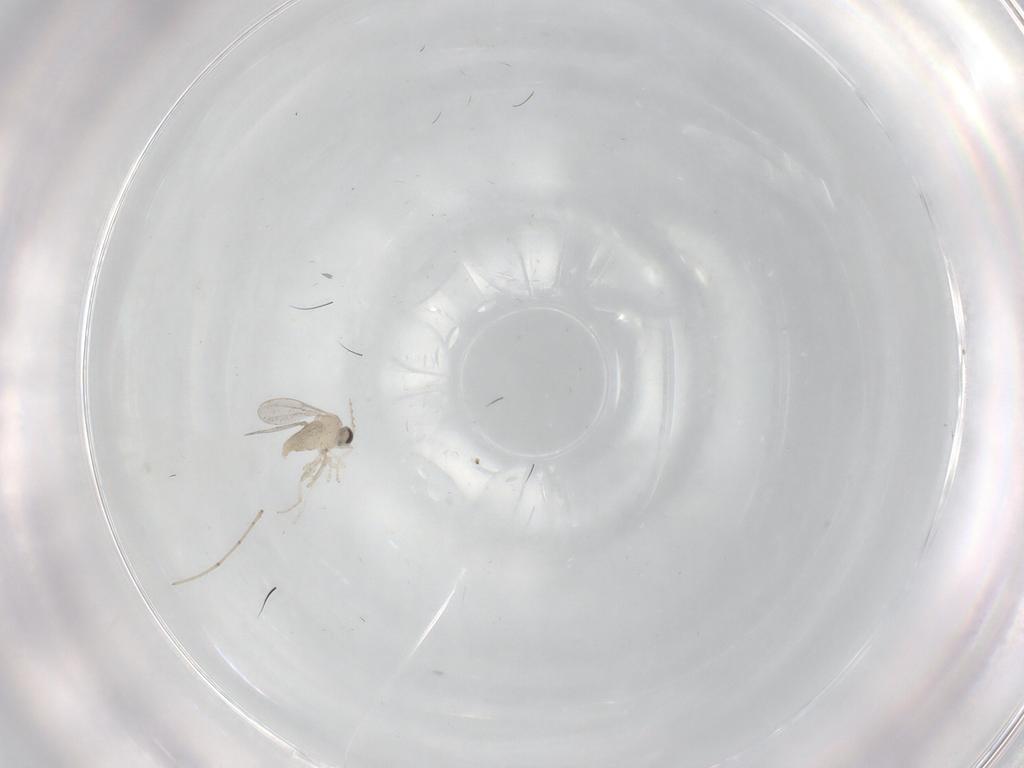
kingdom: Animalia
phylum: Arthropoda
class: Insecta
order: Diptera
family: Cecidomyiidae
